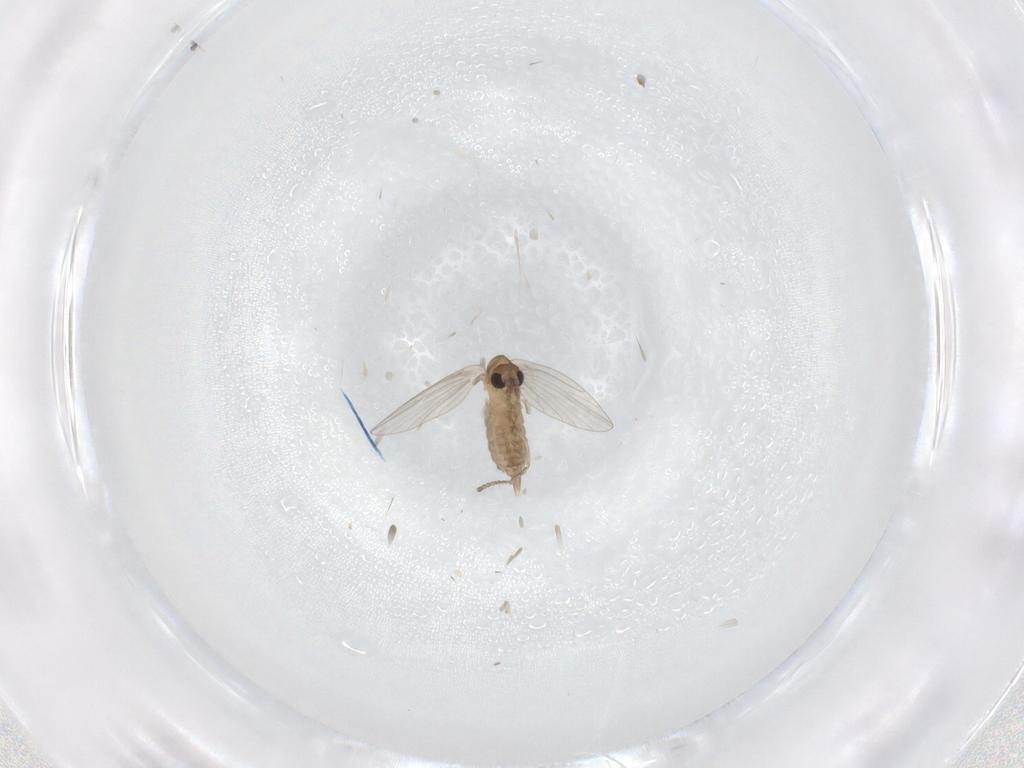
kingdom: Animalia
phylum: Arthropoda
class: Insecta
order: Diptera
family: Psychodidae
